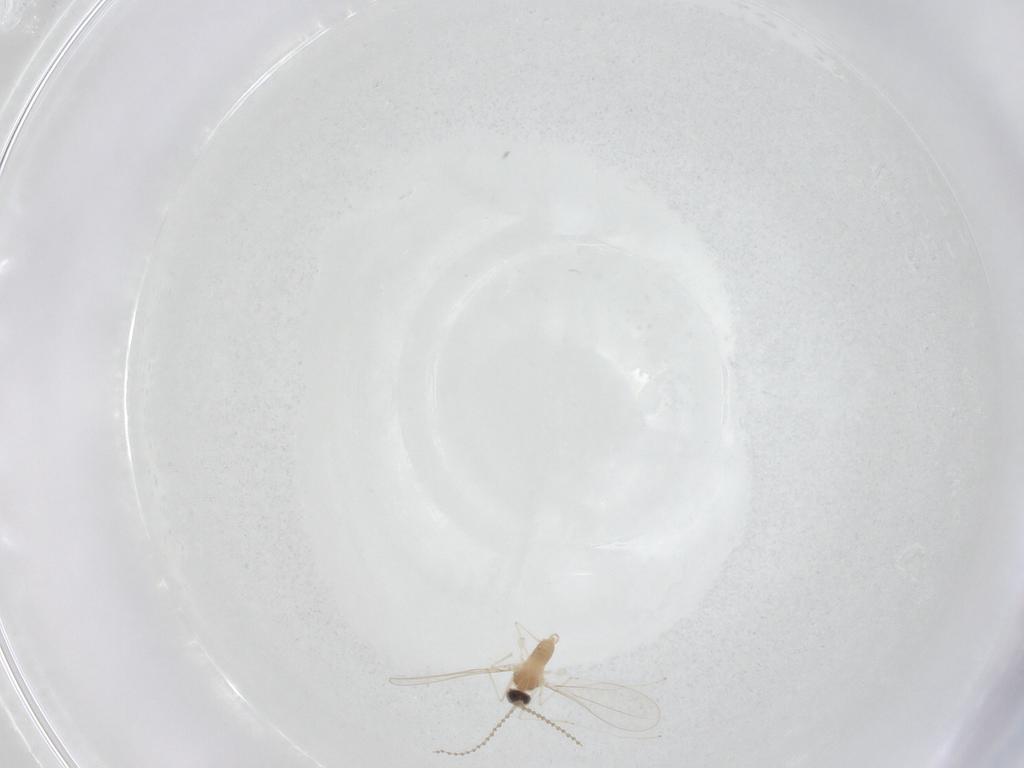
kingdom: Animalia
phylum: Arthropoda
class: Insecta
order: Diptera
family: Cecidomyiidae
